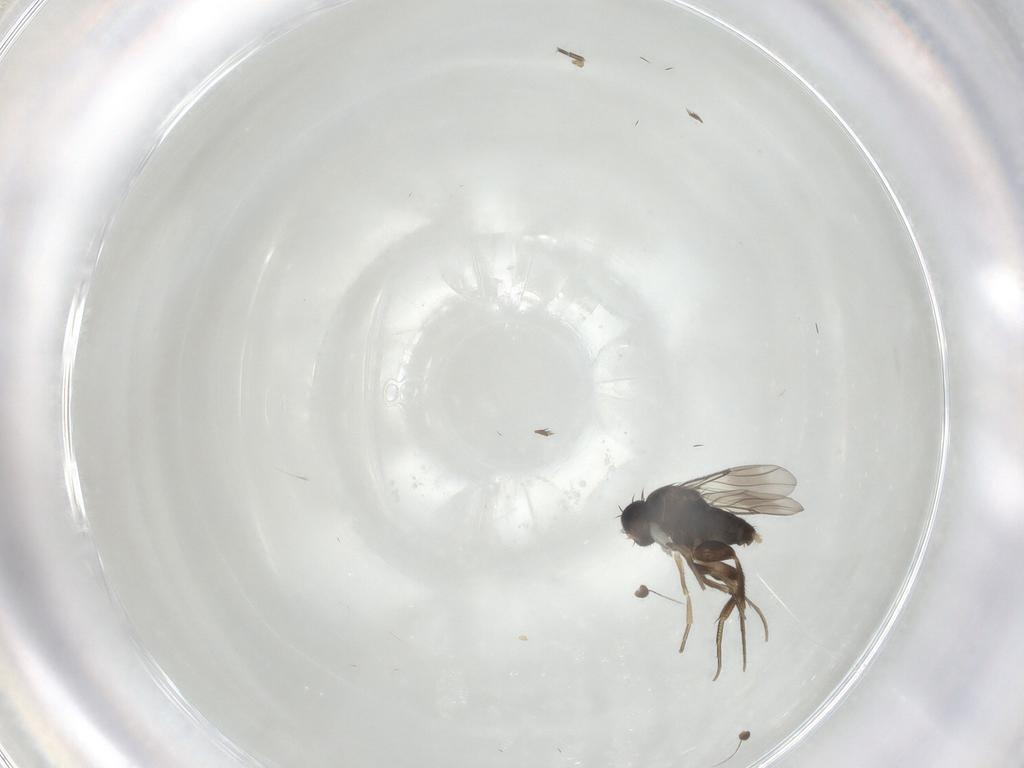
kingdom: Animalia
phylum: Arthropoda
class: Insecta
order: Diptera
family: Phoridae
